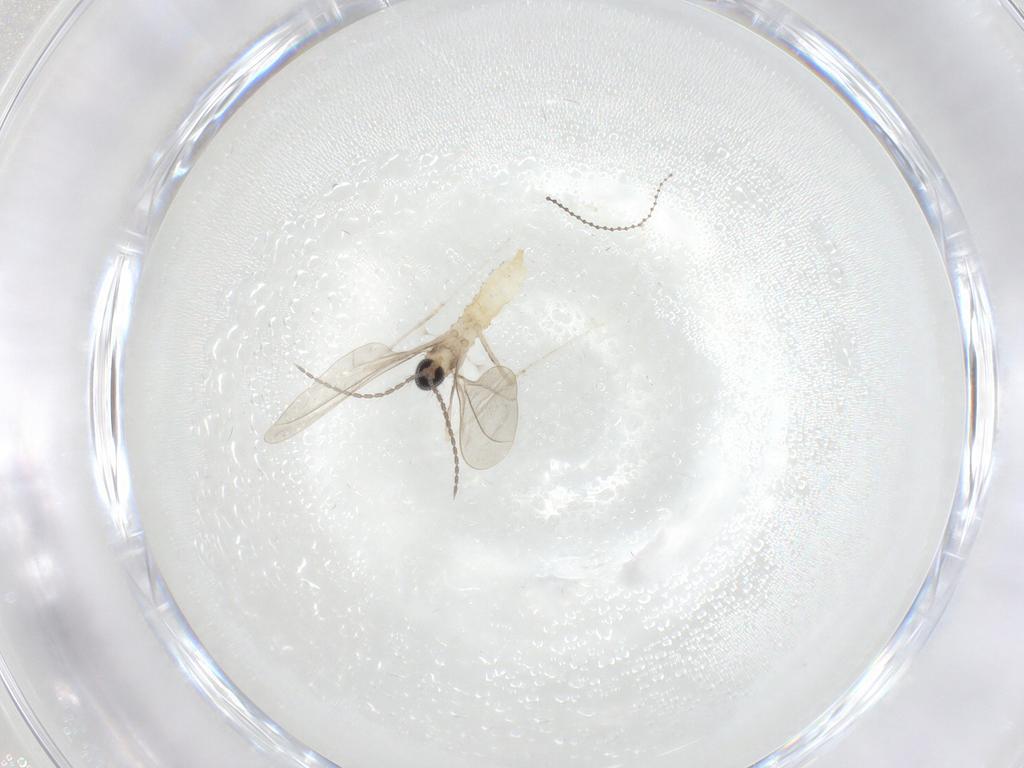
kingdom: Animalia
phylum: Arthropoda
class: Insecta
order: Diptera
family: Cecidomyiidae
